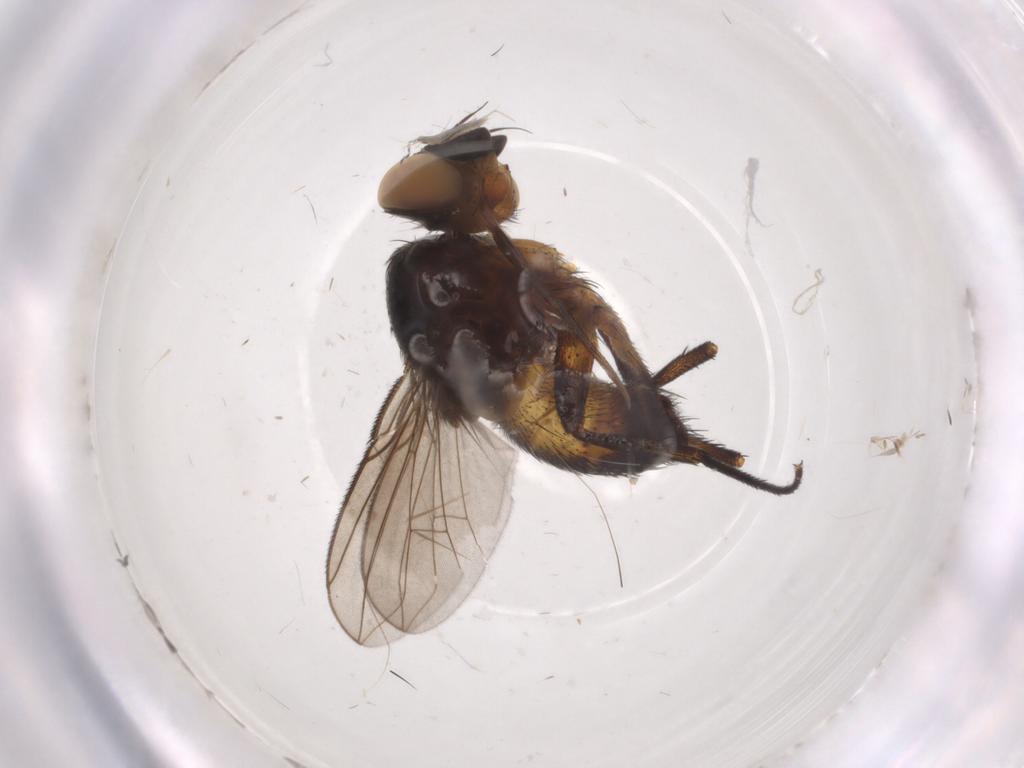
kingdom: Animalia
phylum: Arthropoda
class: Insecta
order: Diptera
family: Tachinidae
